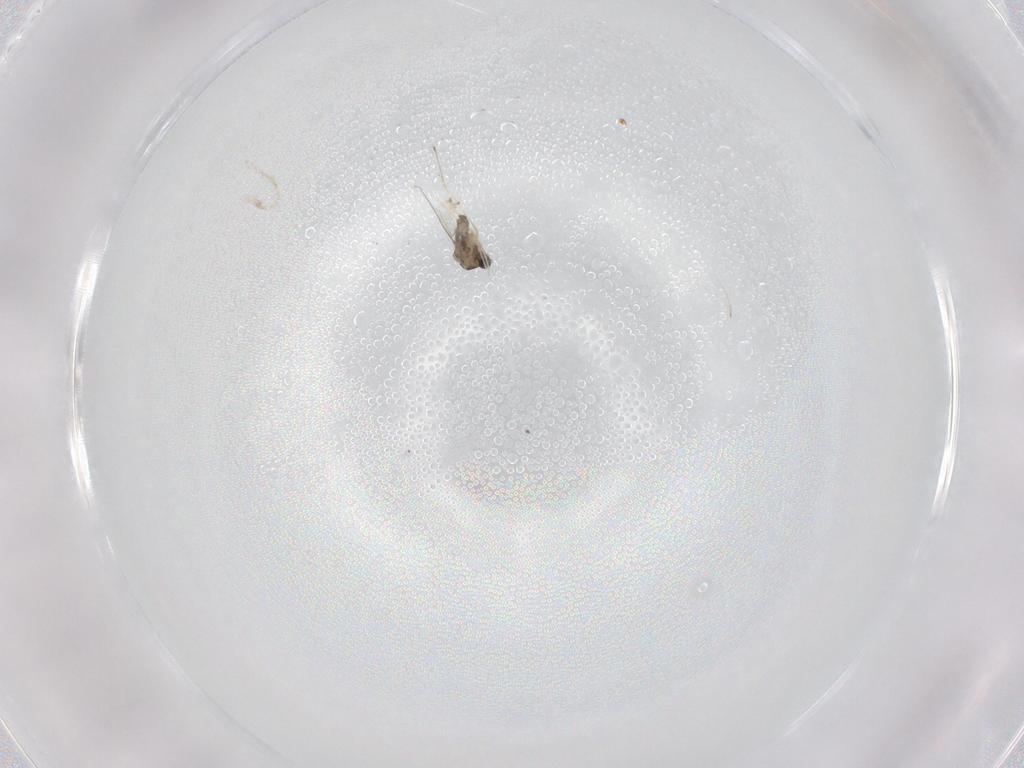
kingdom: Animalia
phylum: Arthropoda
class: Insecta
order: Diptera
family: Cecidomyiidae
